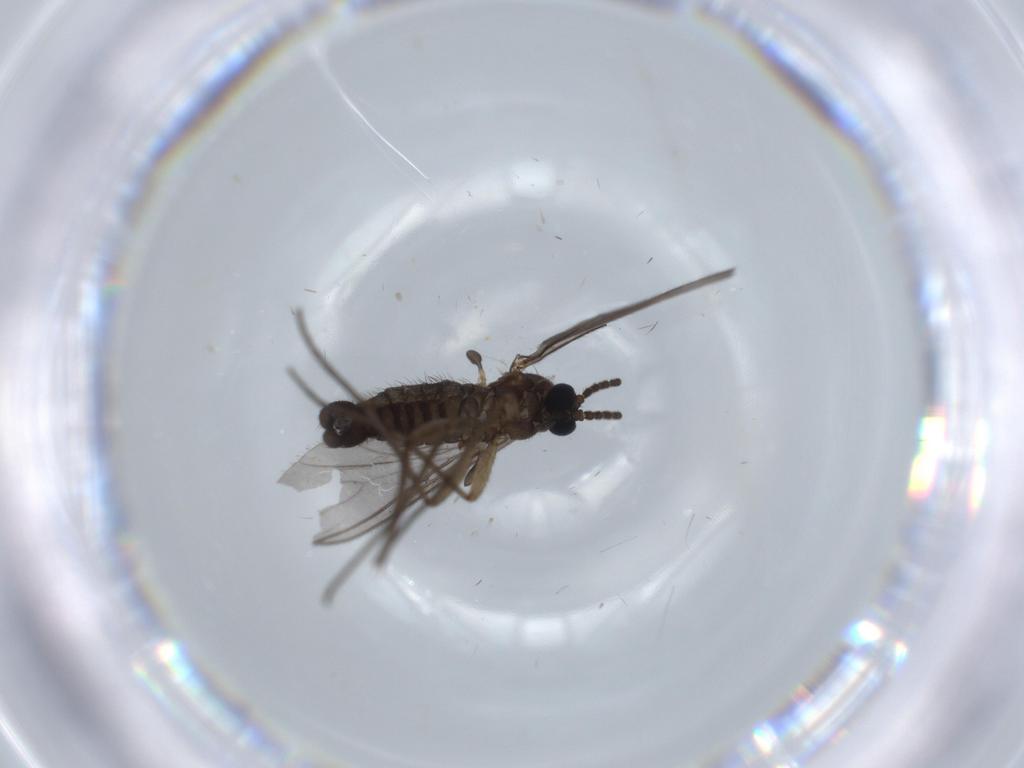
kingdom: Animalia
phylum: Arthropoda
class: Insecta
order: Diptera
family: Sciaridae
